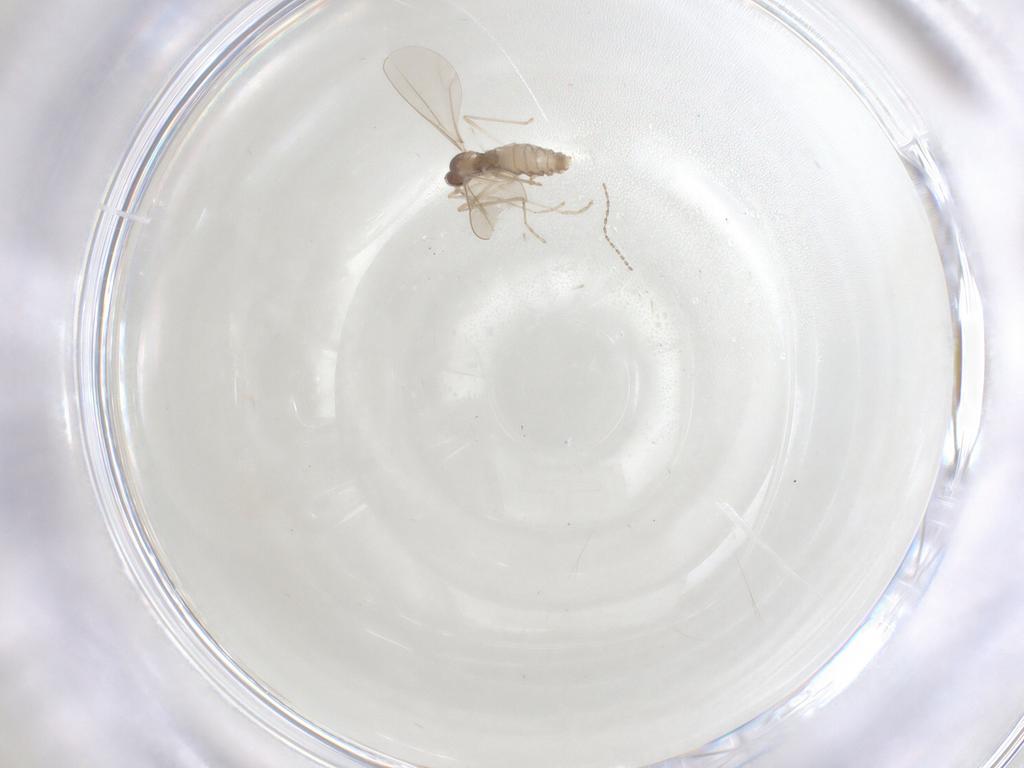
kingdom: Animalia
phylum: Arthropoda
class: Insecta
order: Diptera
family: Cecidomyiidae
